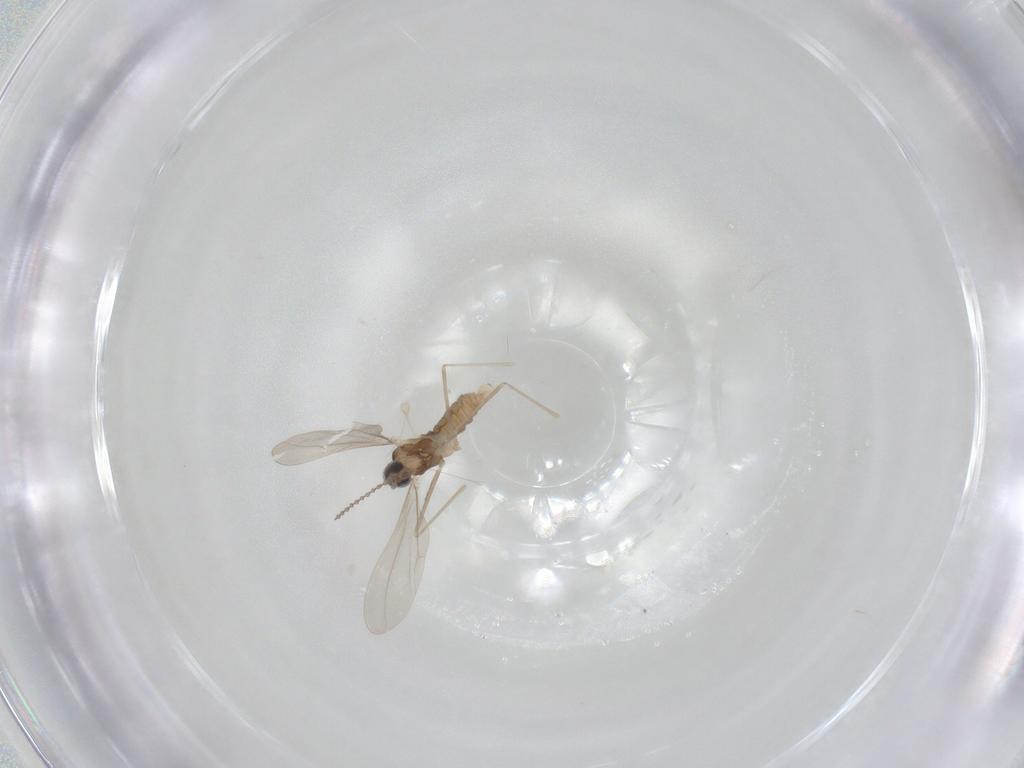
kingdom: Animalia
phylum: Arthropoda
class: Insecta
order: Diptera
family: Cecidomyiidae
